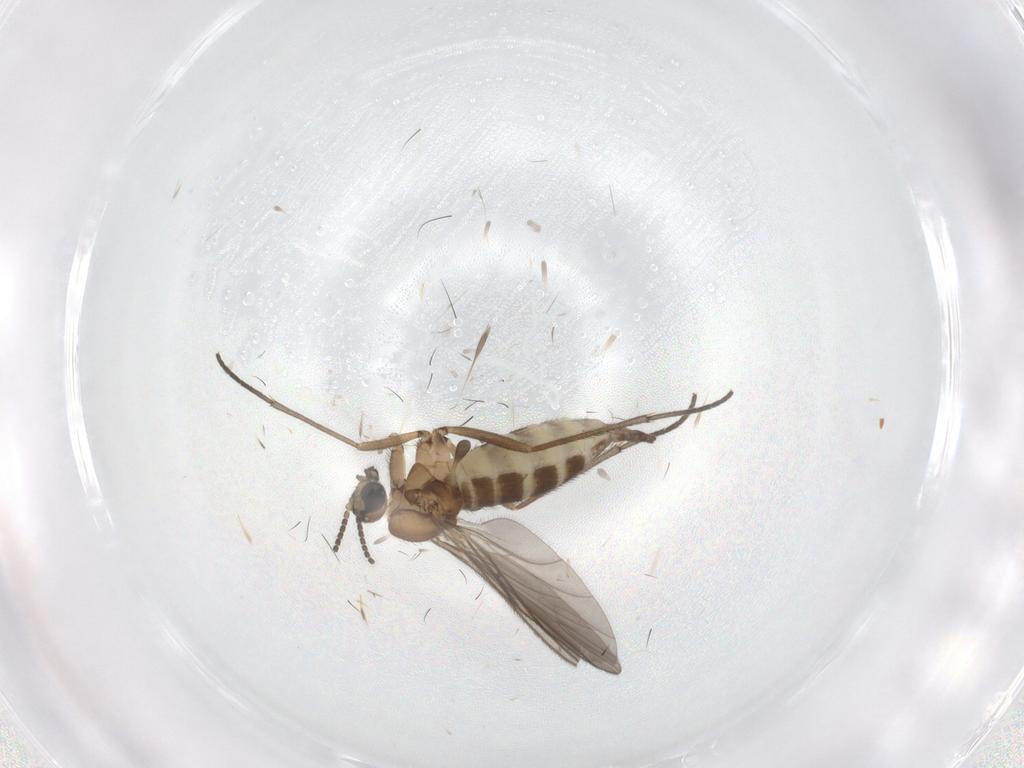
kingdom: Animalia
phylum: Arthropoda
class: Insecta
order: Diptera
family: Sciaridae
